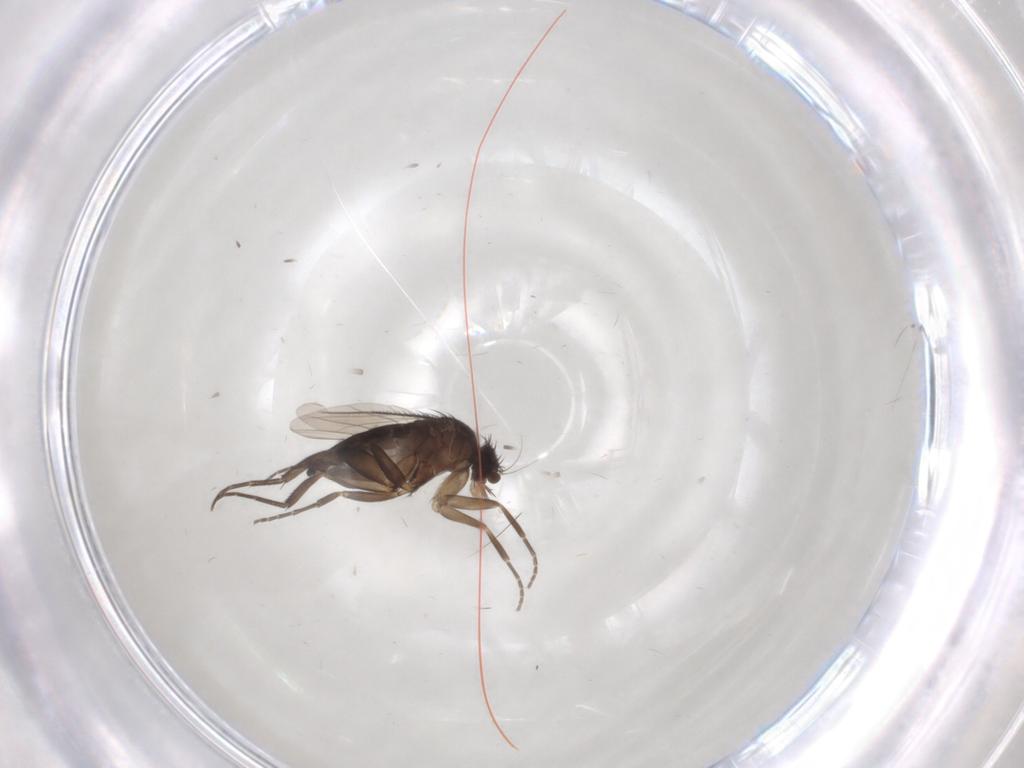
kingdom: Animalia
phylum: Arthropoda
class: Insecta
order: Diptera
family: Phoridae
